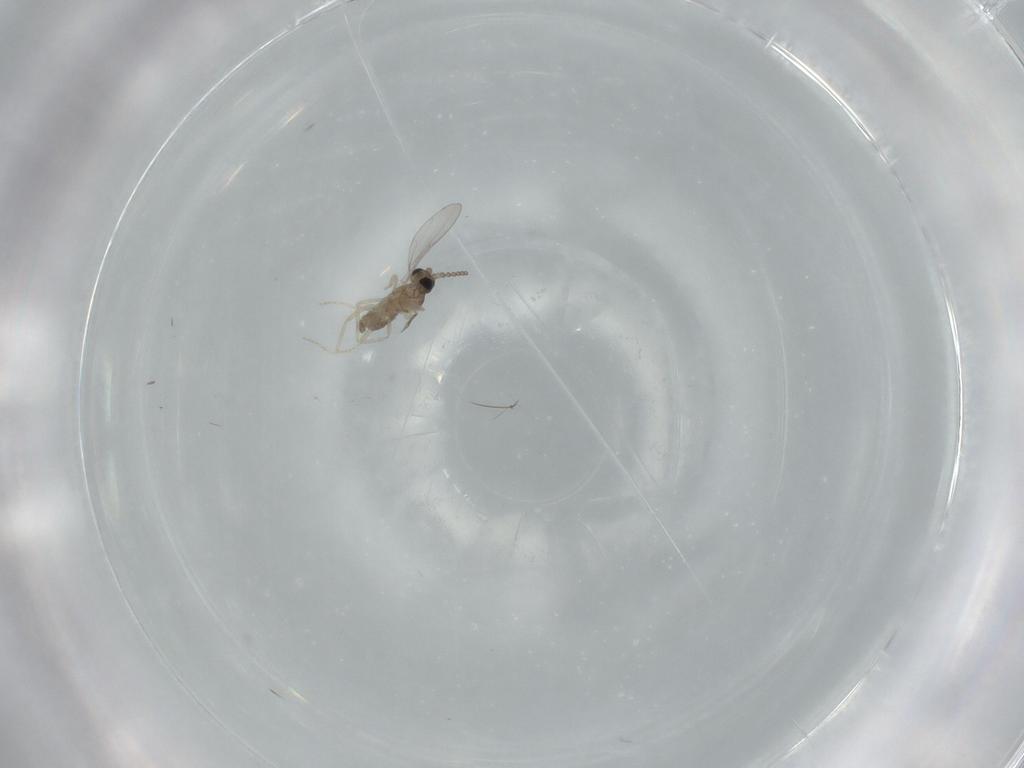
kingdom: Animalia
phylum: Arthropoda
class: Insecta
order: Diptera
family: Cecidomyiidae
